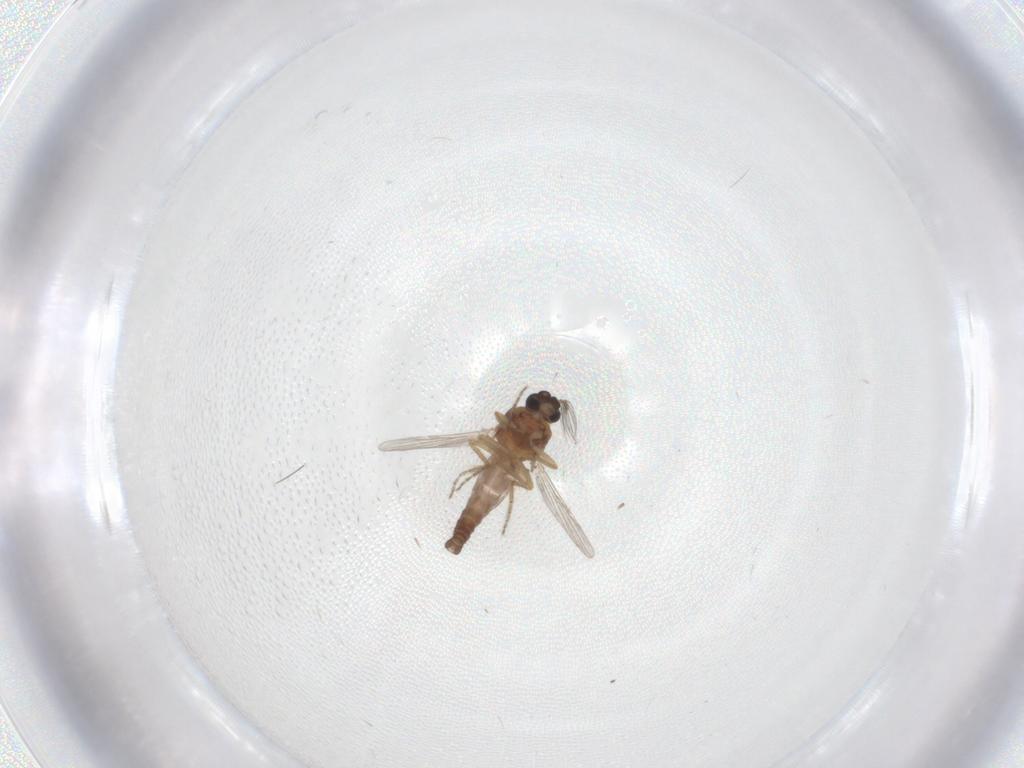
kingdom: Animalia
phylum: Arthropoda
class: Insecta
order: Diptera
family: Ceratopogonidae
